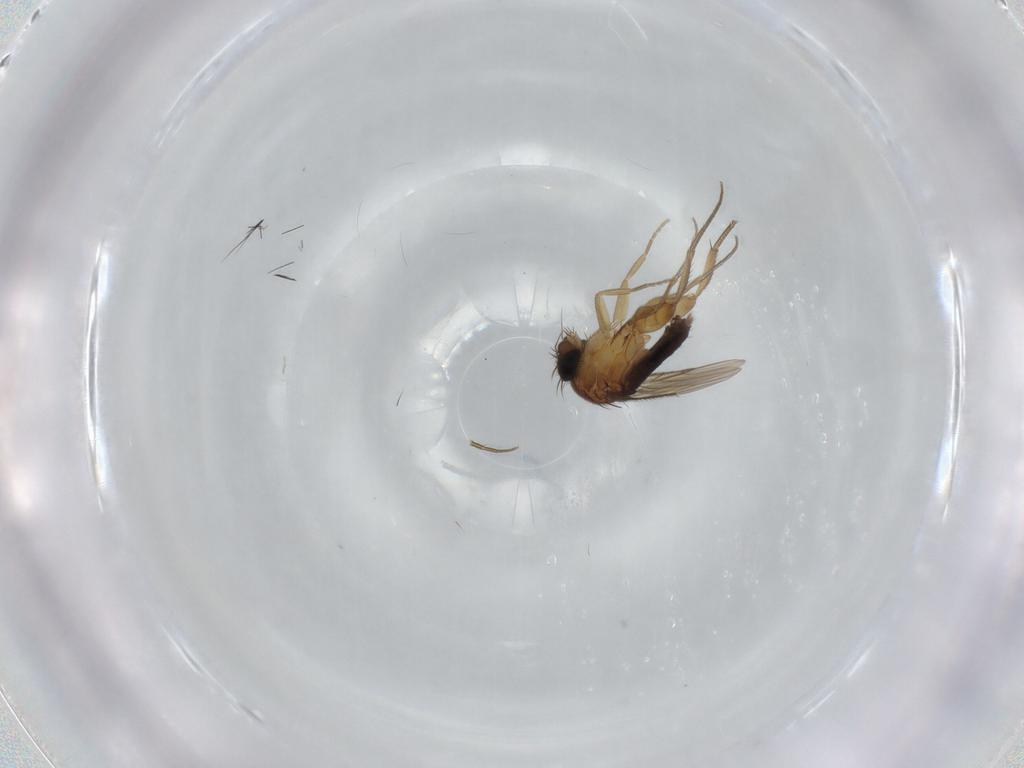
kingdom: Animalia
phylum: Arthropoda
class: Insecta
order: Diptera
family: Phoridae
